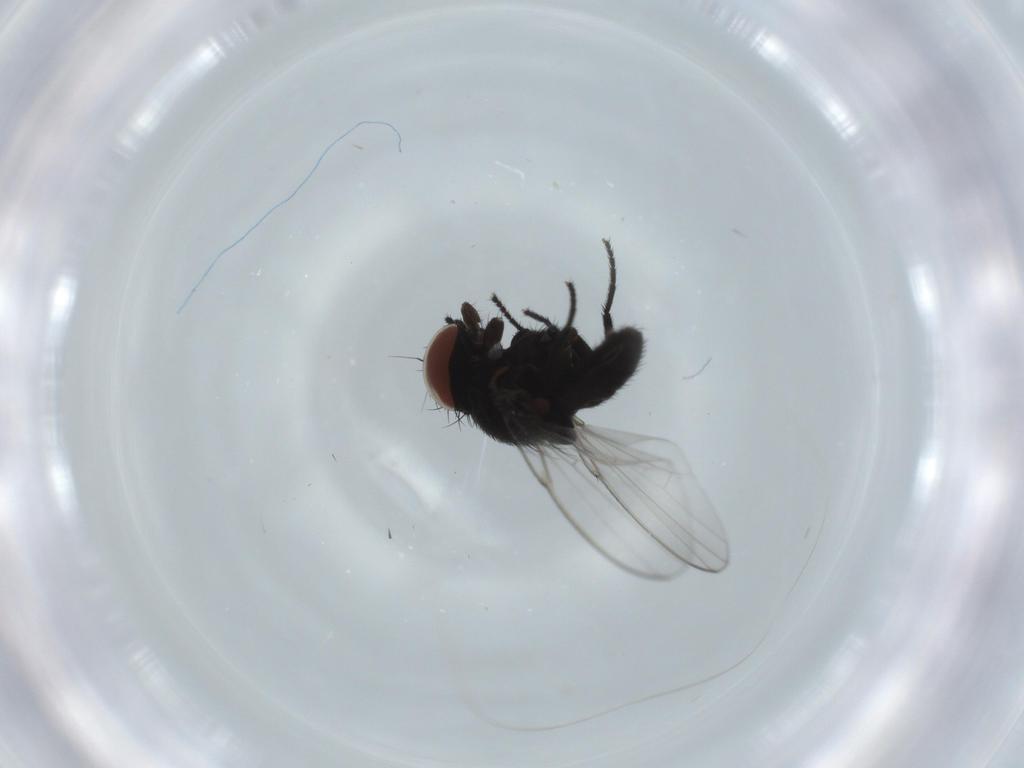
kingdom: Animalia
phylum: Arthropoda
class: Insecta
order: Diptera
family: Milichiidae
